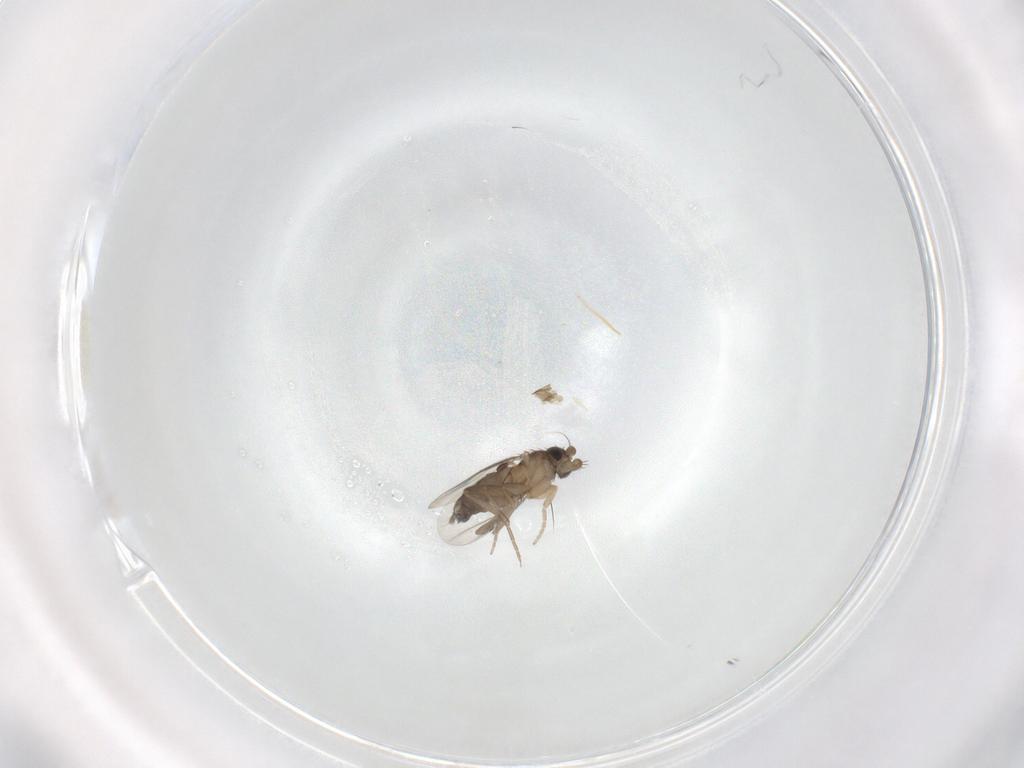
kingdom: Animalia
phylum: Arthropoda
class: Insecta
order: Diptera
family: Phoridae
